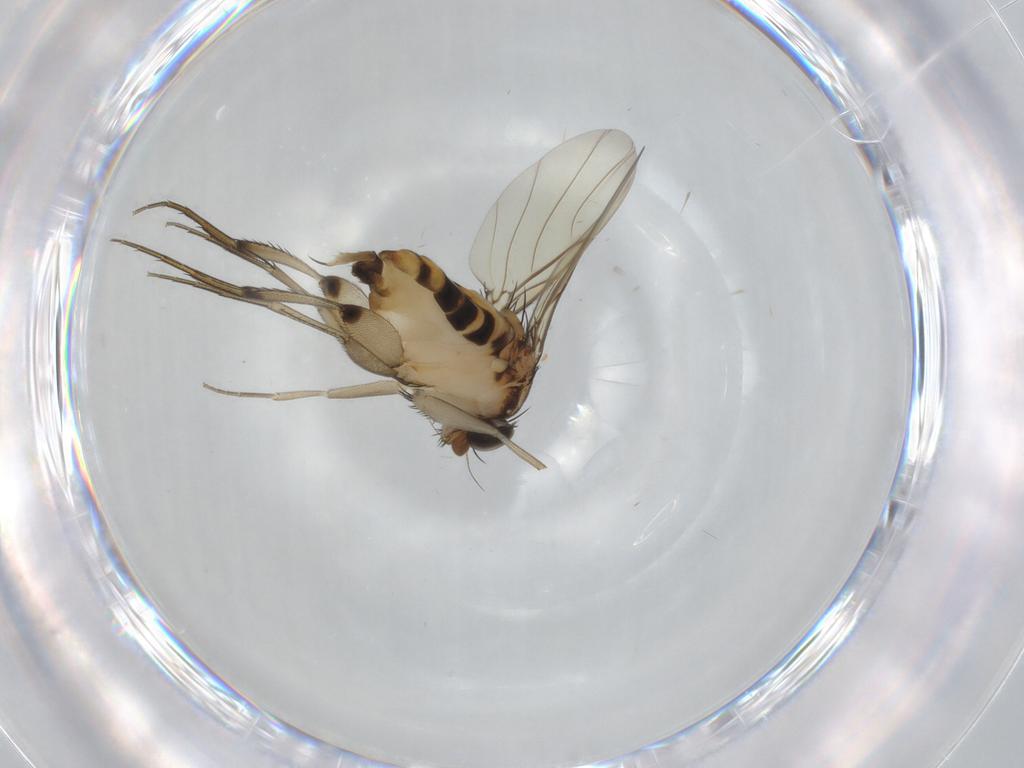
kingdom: Animalia
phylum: Arthropoda
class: Insecta
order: Diptera
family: Phoridae
